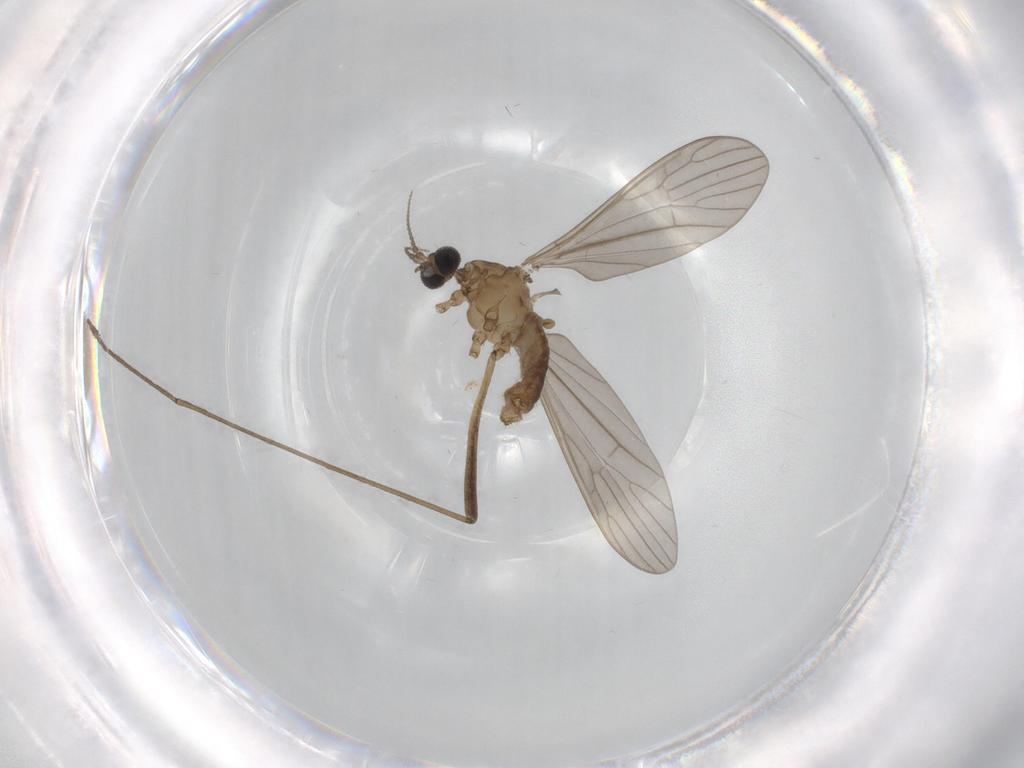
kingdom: Animalia
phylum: Arthropoda
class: Insecta
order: Diptera
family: Phoridae
